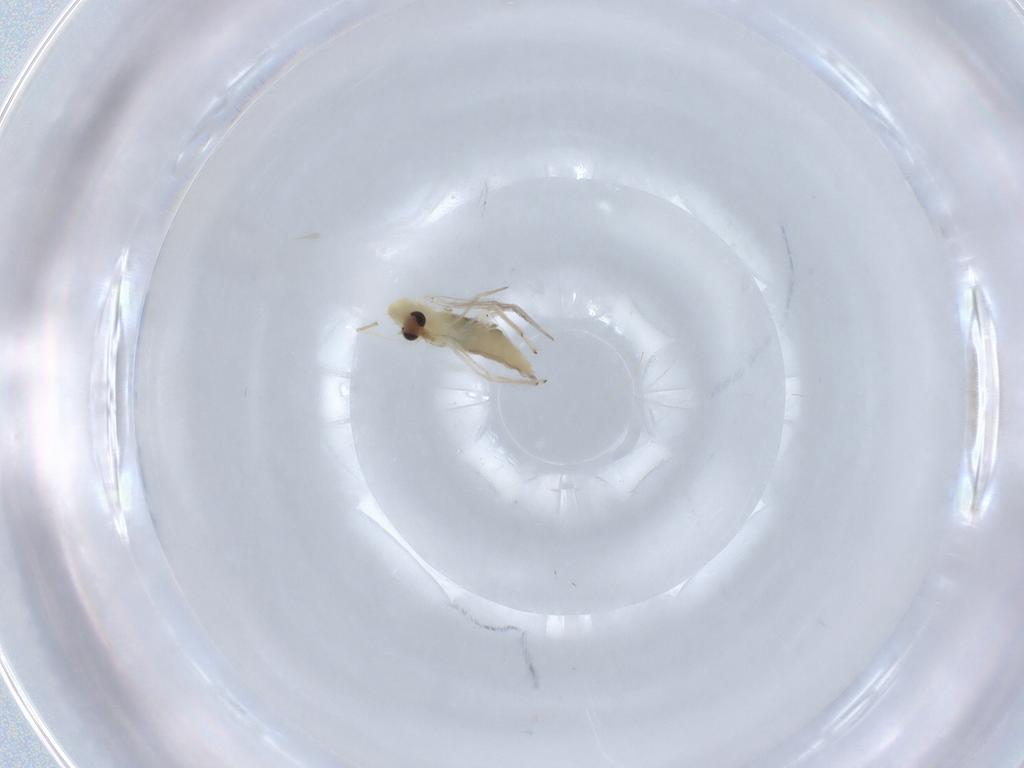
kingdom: Animalia
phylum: Arthropoda
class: Insecta
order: Diptera
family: Chironomidae
